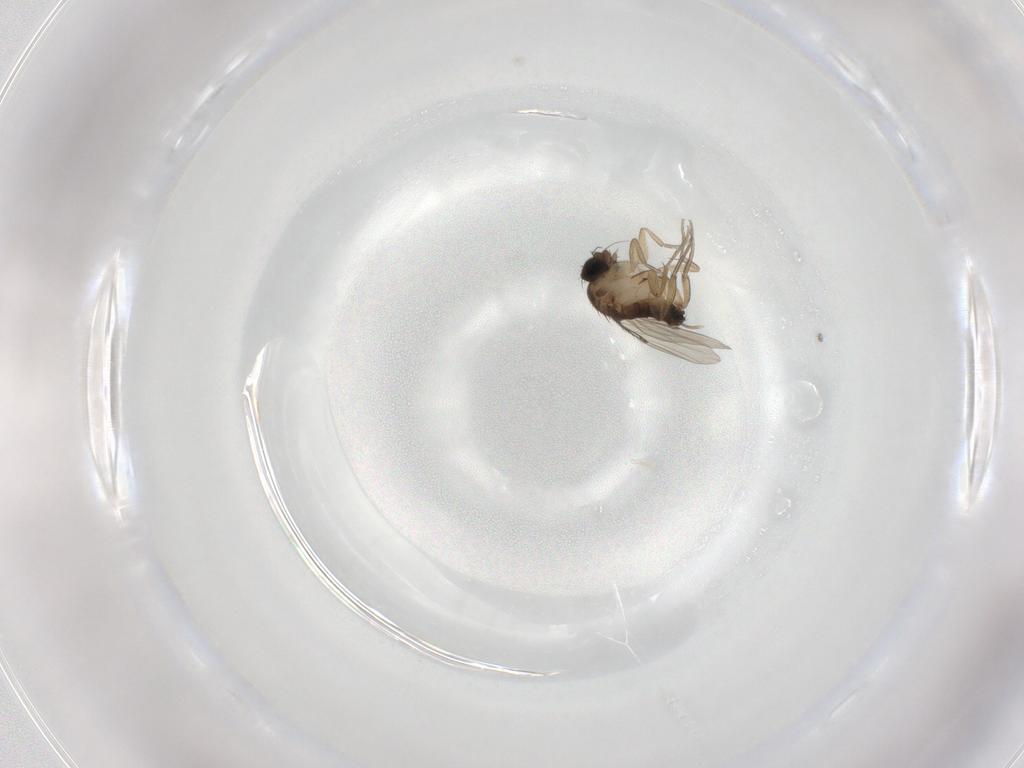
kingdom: Animalia
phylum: Arthropoda
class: Insecta
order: Diptera
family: Phoridae
